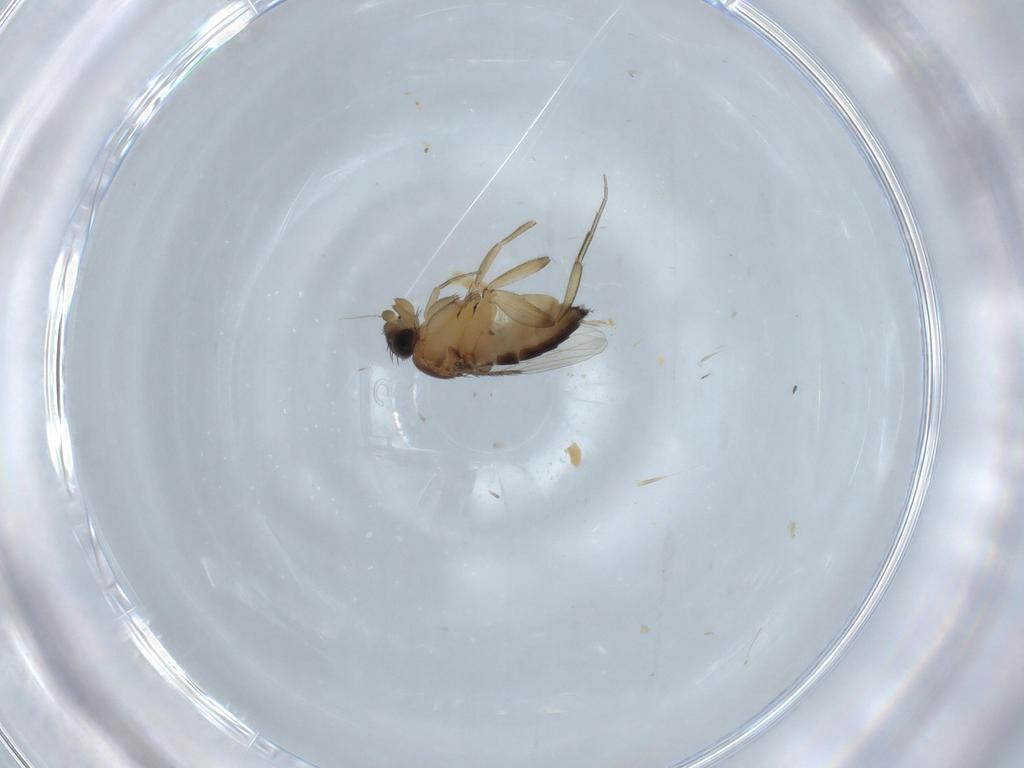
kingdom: Animalia
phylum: Arthropoda
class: Insecta
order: Diptera
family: Cecidomyiidae
